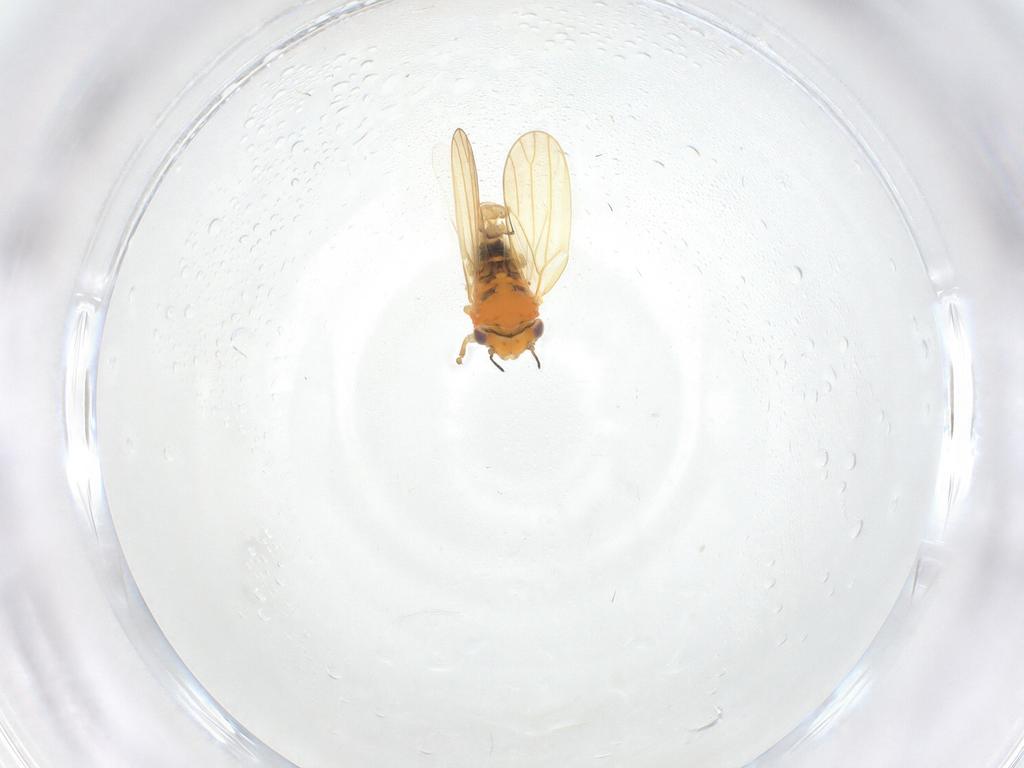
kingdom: Animalia
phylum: Arthropoda
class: Insecta
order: Hemiptera
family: Aphalaridae
